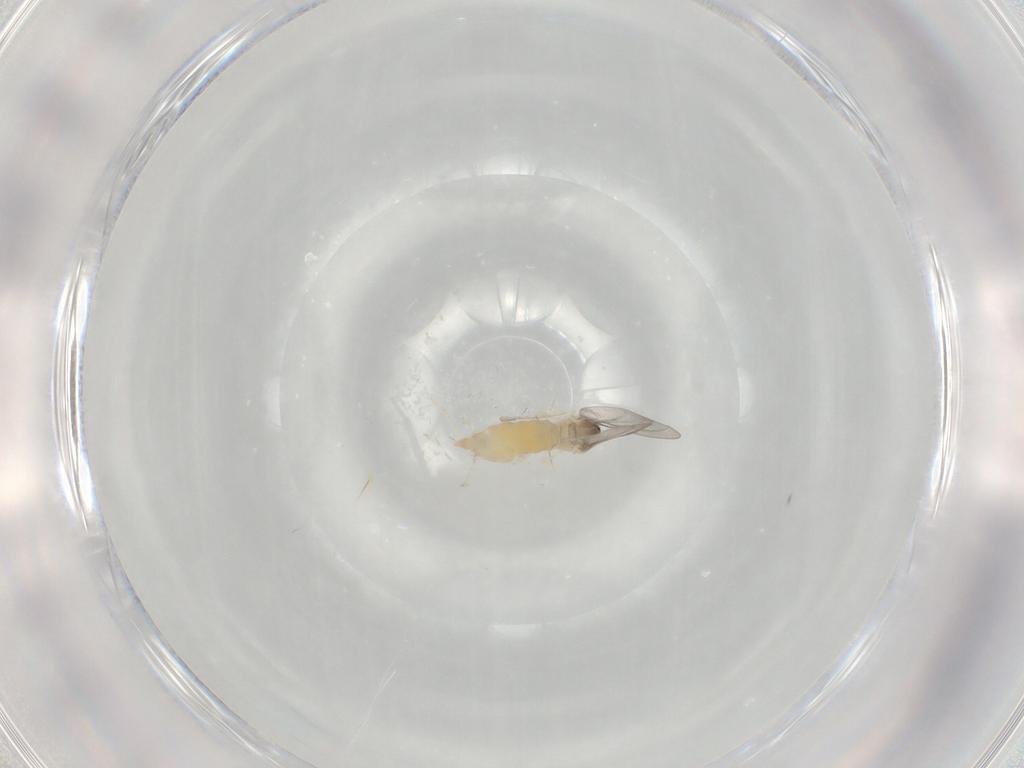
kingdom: Animalia
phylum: Arthropoda
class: Insecta
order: Diptera
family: Cecidomyiidae
